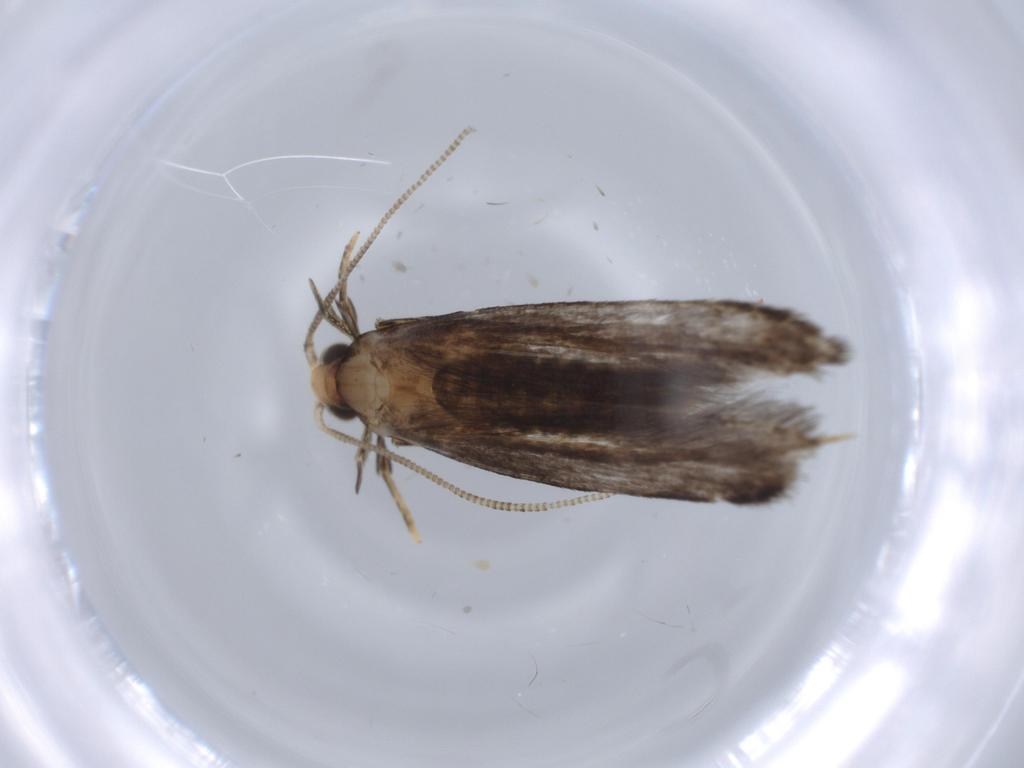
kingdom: Animalia
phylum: Arthropoda
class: Insecta
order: Lepidoptera
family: Tineidae
